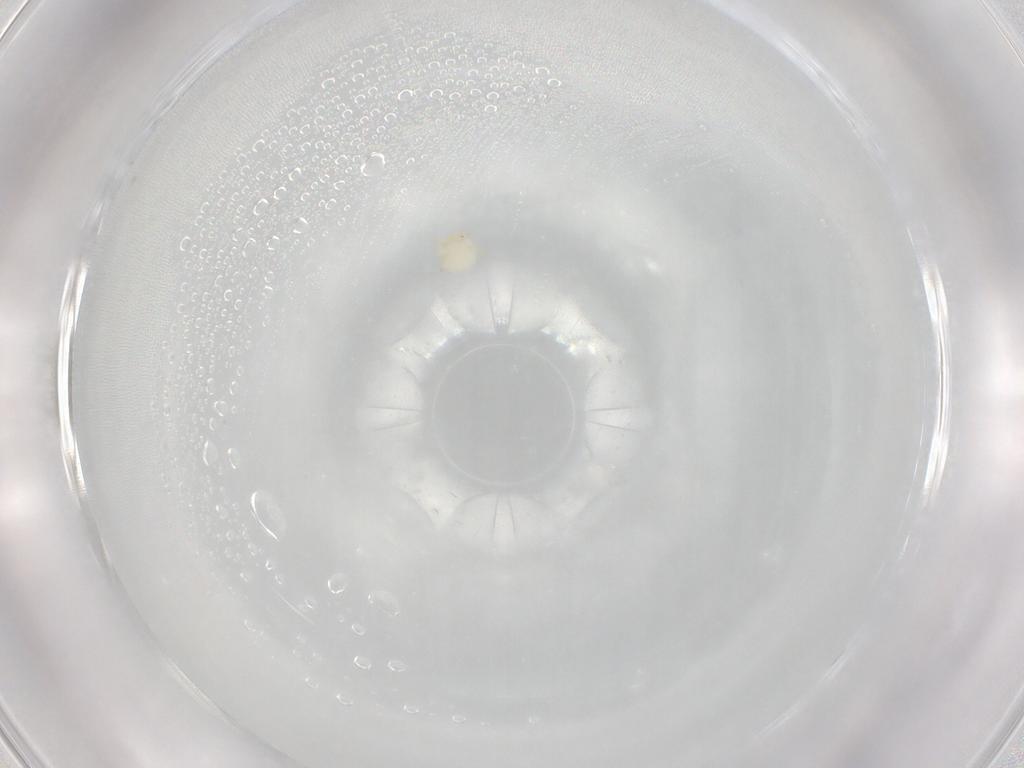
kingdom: Animalia
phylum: Arthropoda
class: Arachnida
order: Trombidiformes
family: Lebertiidae
